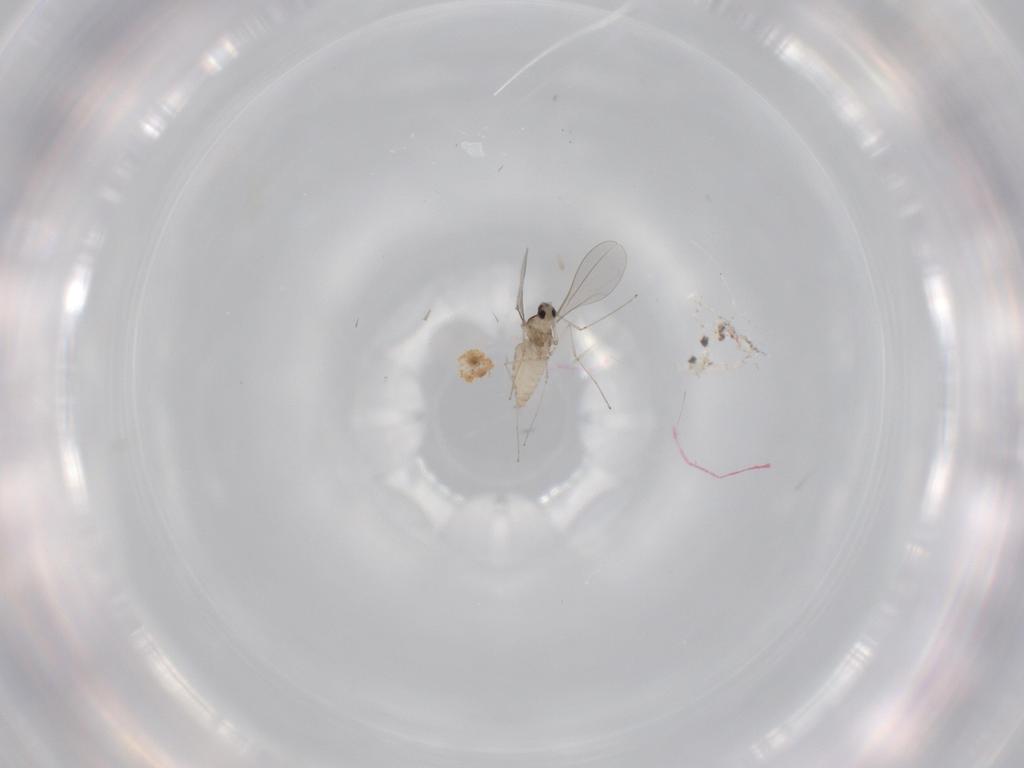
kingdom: Animalia
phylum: Arthropoda
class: Insecta
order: Diptera
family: Cecidomyiidae
